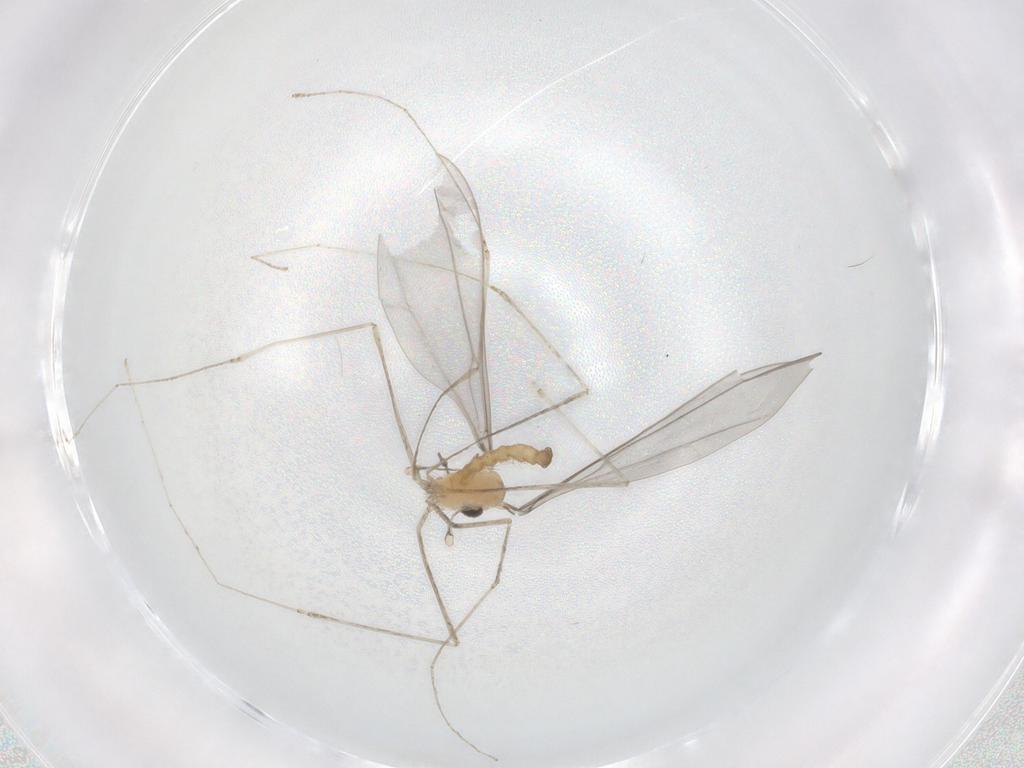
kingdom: Animalia
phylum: Arthropoda
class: Insecta
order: Diptera
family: Cecidomyiidae
